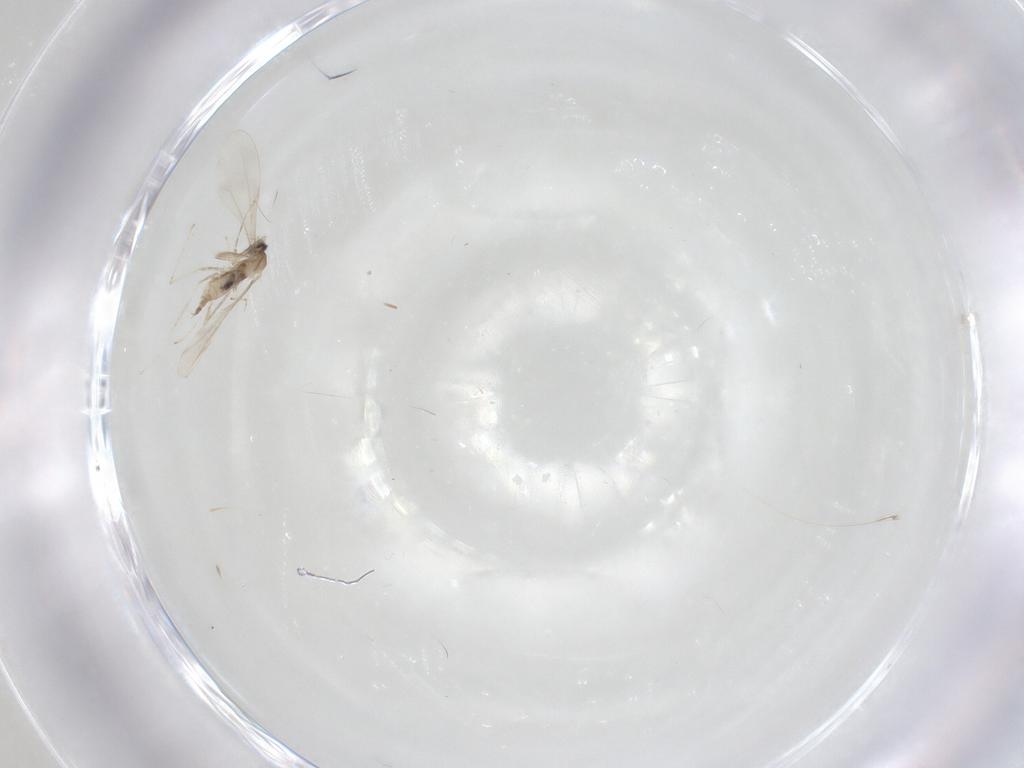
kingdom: Animalia
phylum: Arthropoda
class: Insecta
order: Diptera
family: Cecidomyiidae
